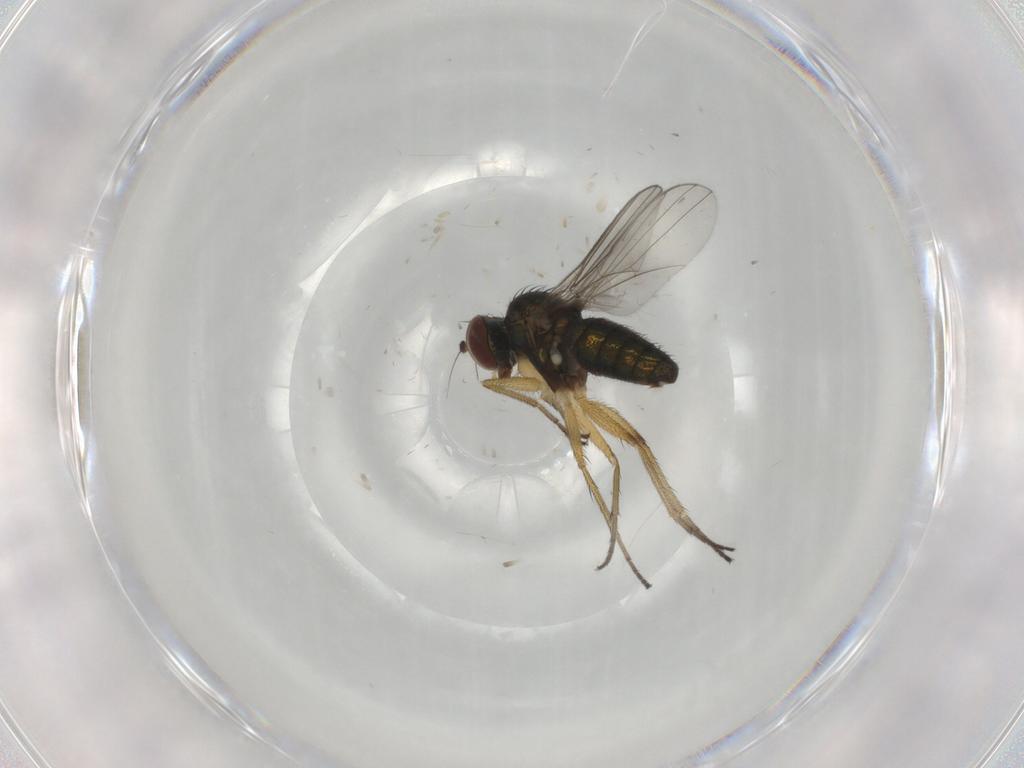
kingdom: Animalia
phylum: Arthropoda
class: Insecta
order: Diptera
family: Dolichopodidae
